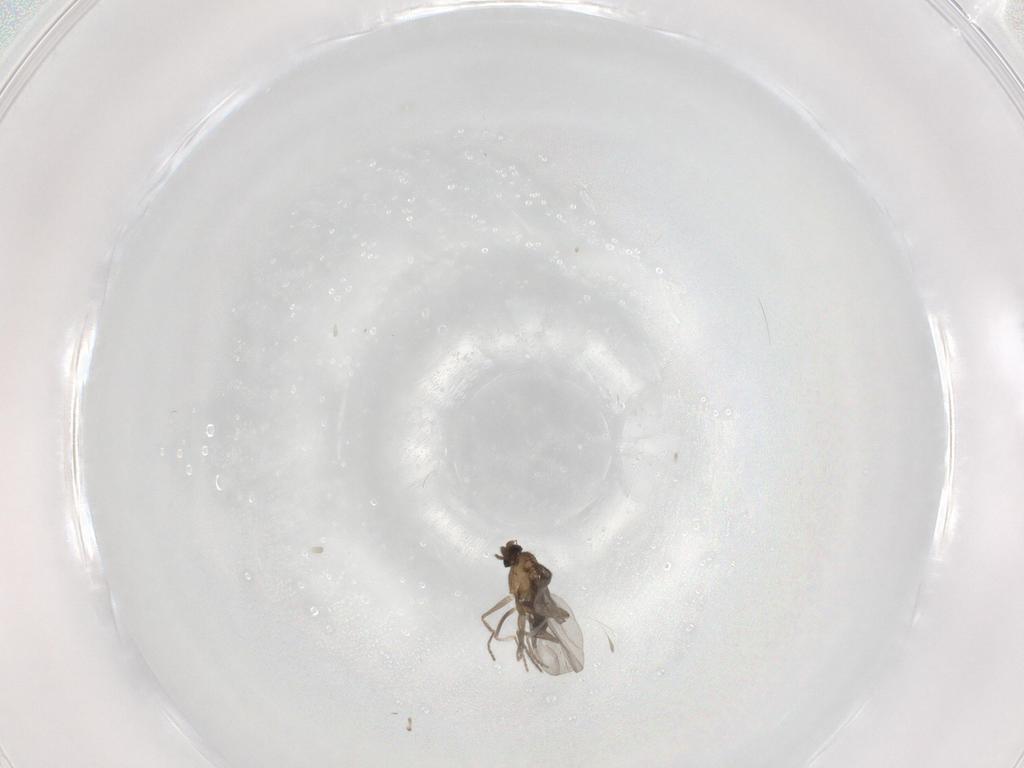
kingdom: Animalia
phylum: Arthropoda
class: Insecta
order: Diptera
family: Phoridae
